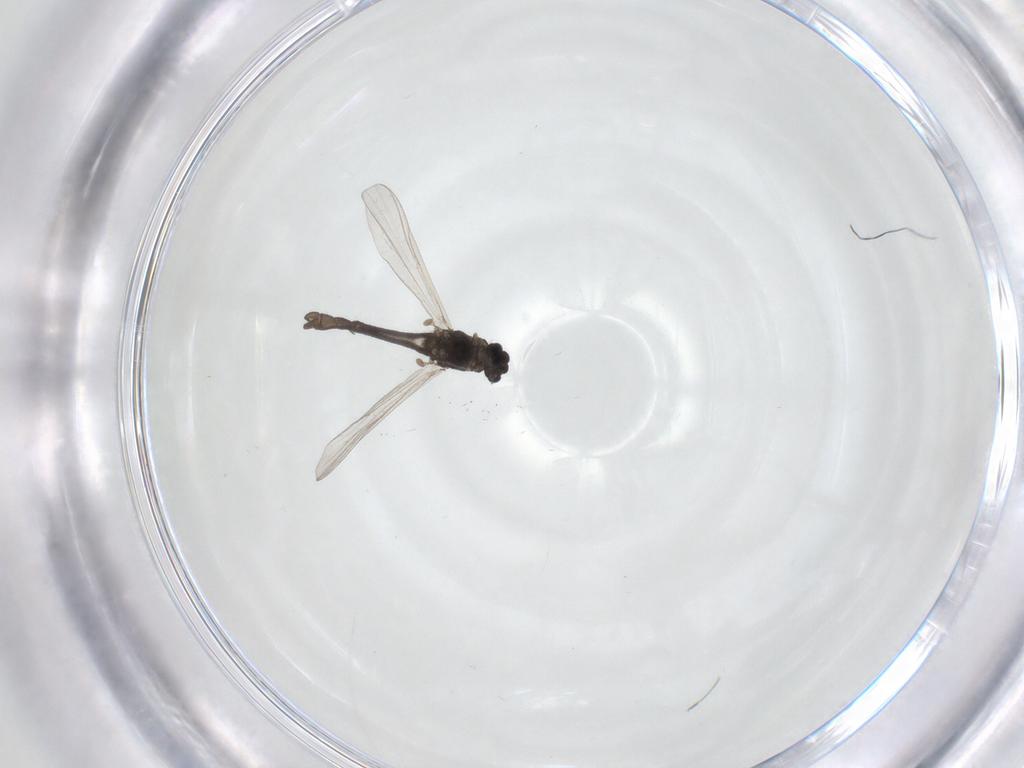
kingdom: Animalia
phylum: Arthropoda
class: Insecta
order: Diptera
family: Chironomidae
